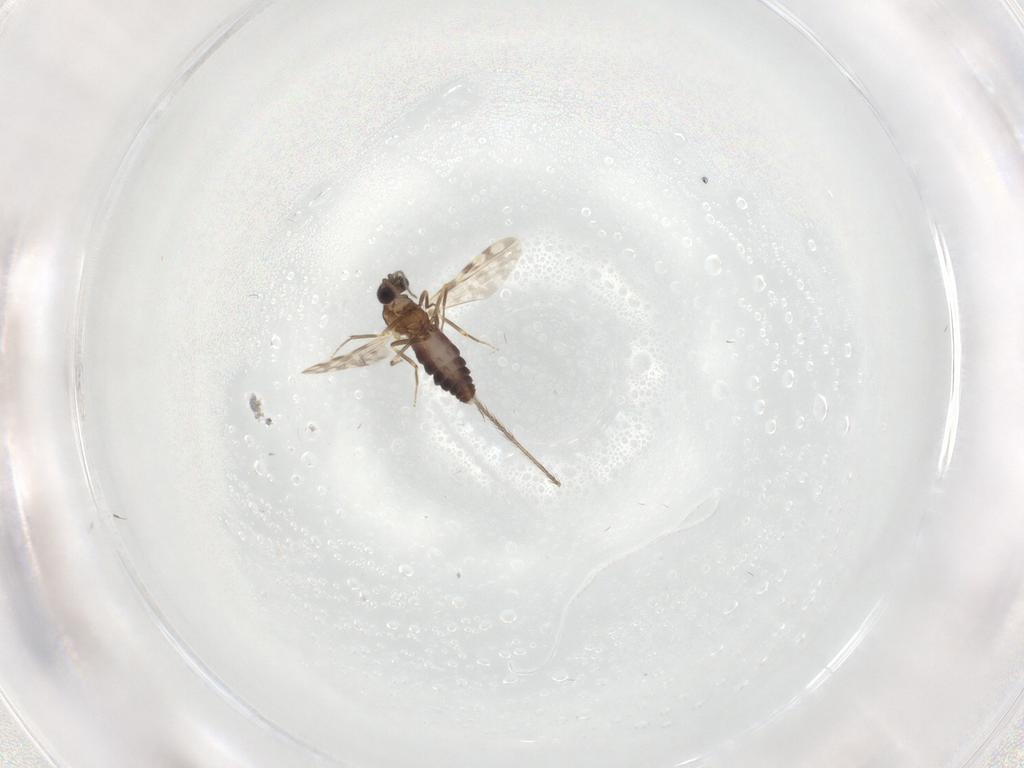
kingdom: Animalia
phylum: Arthropoda
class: Insecta
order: Diptera
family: Ceratopogonidae
